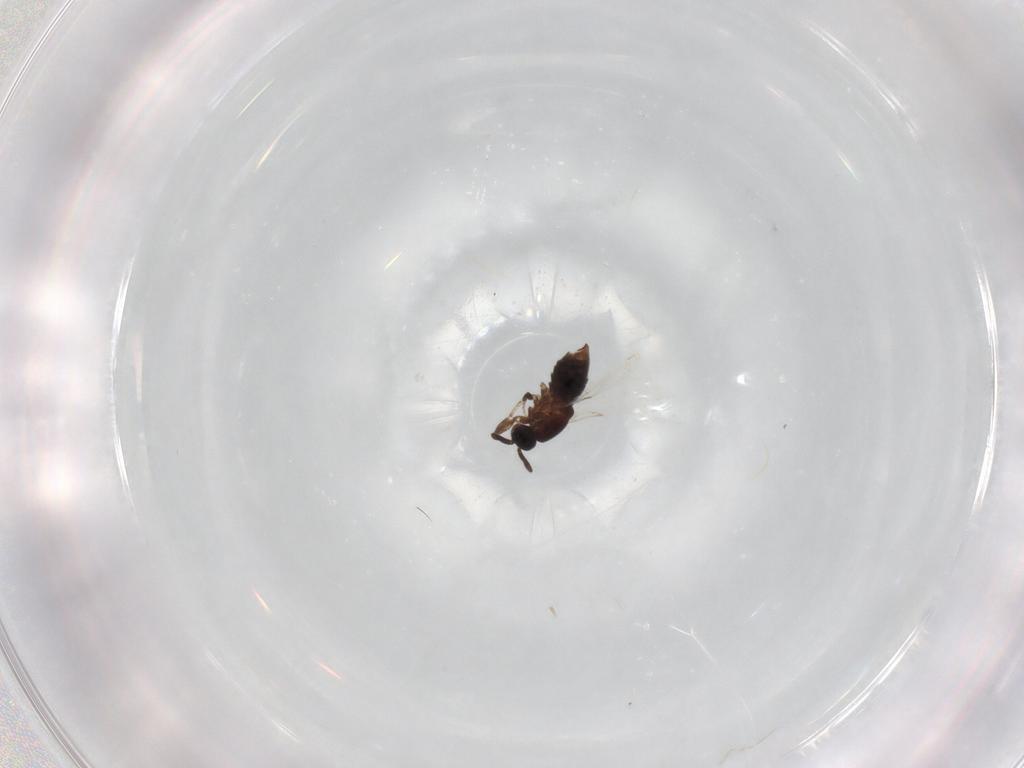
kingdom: Animalia
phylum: Arthropoda
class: Insecta
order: Diptera
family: Scatopsidae
